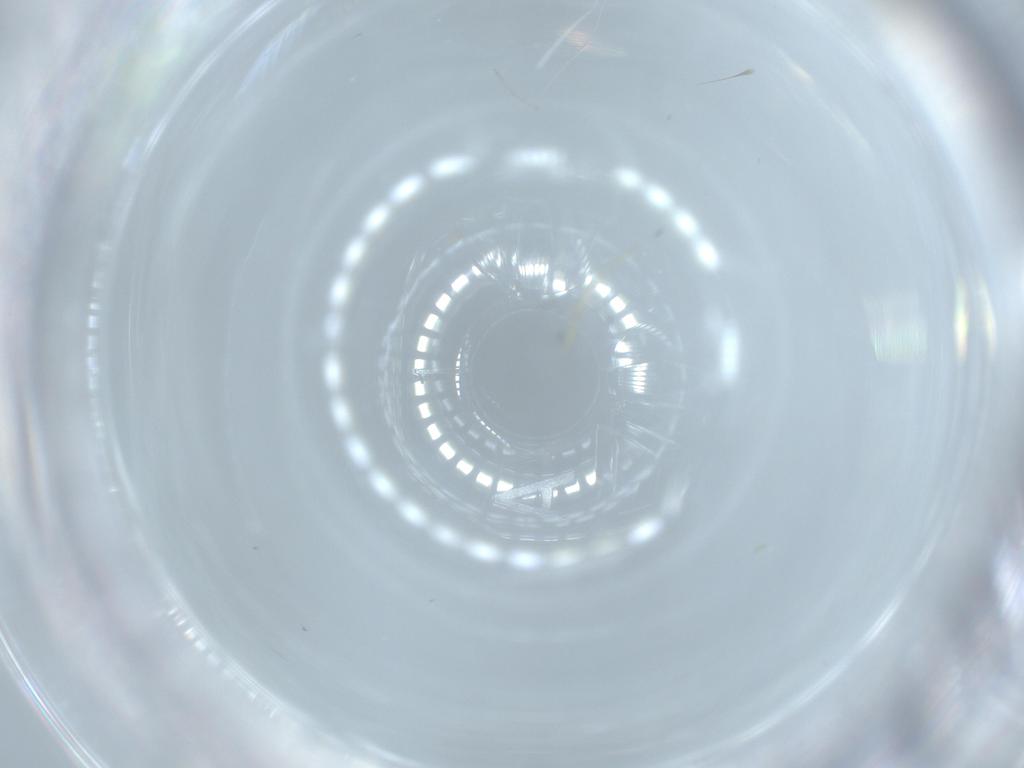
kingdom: Animalia
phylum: Arthropoda
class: Insecta
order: Diptera
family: Cecidomyiidae
